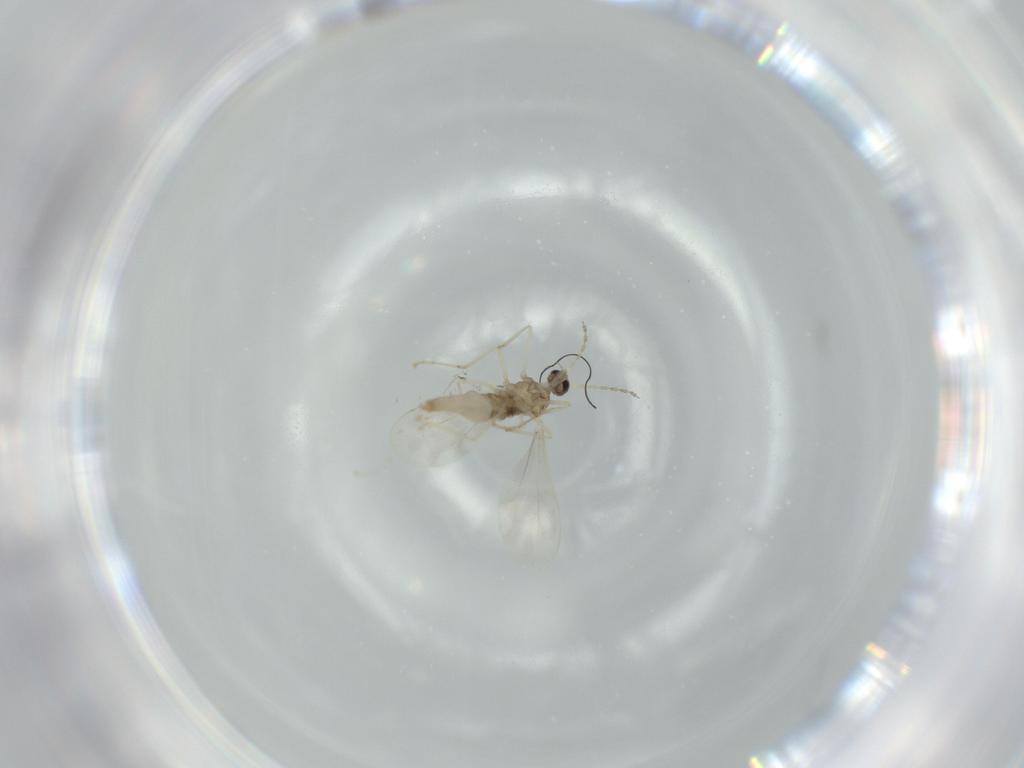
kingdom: Animalia
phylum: Arthropoda
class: Insecta
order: Diptera
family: Cecidomyiidae
